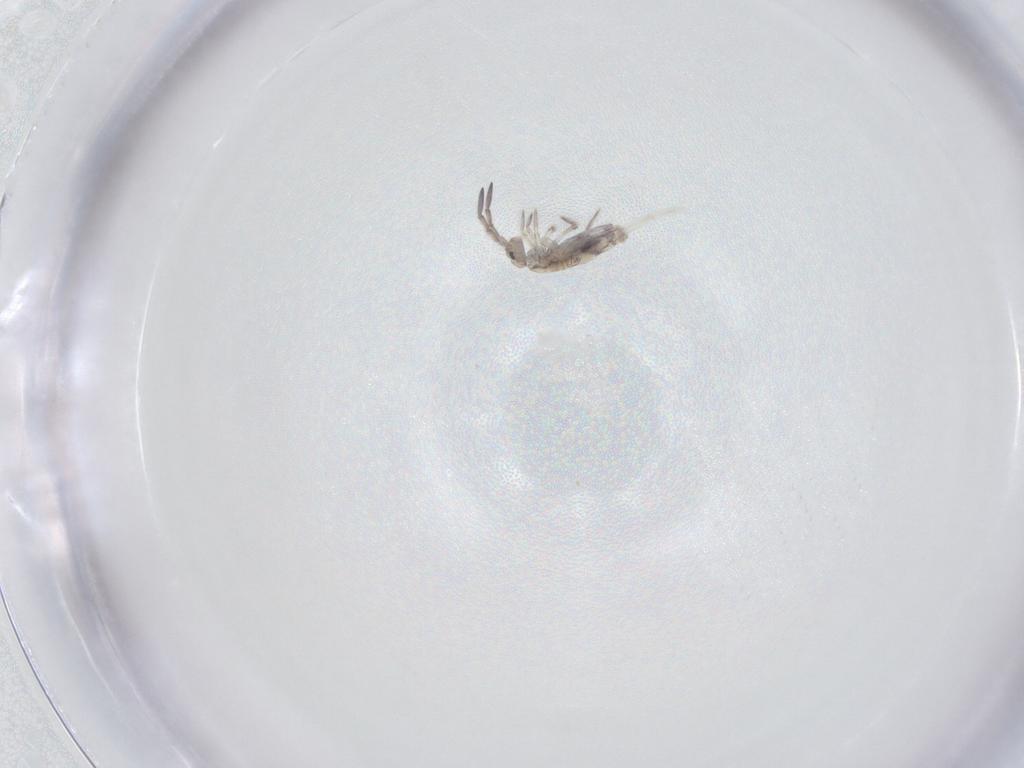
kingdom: Animalia
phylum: Arthropoda
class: Collembola
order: Entomobryomorpha
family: Entomobryidae
